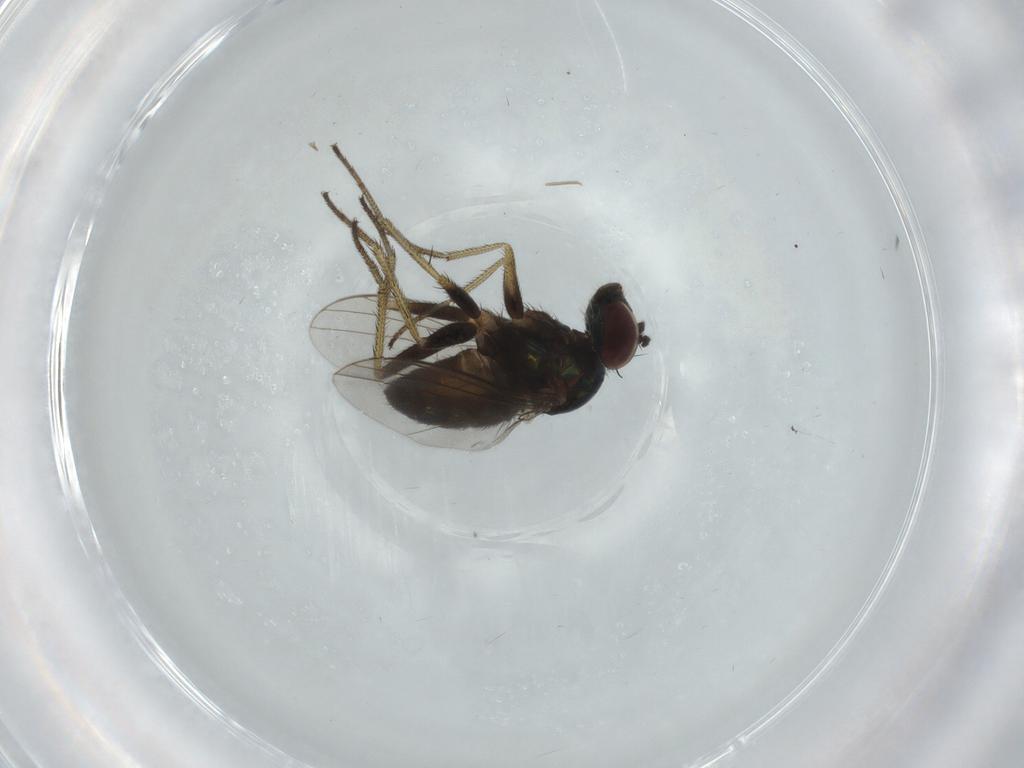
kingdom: Animalia
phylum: Arthropoda
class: Insecta
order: Diptera
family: Dolichopodidae
